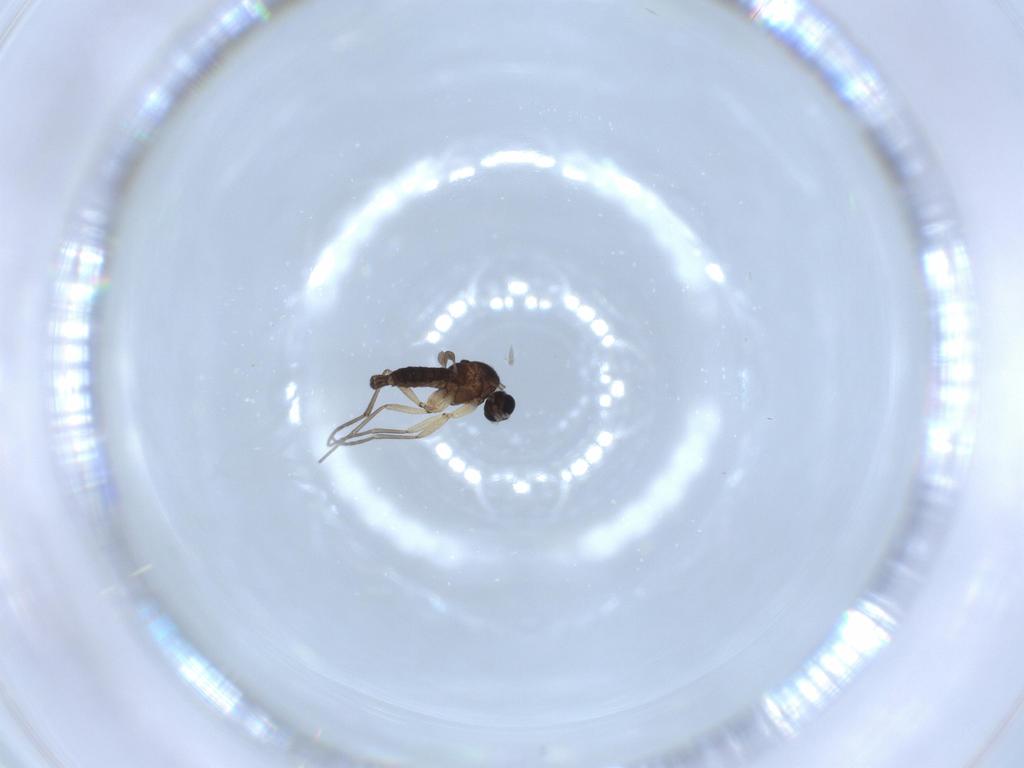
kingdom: Animalia
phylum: Arthropoda
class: Insecta
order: Diptera
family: Sciaridae
